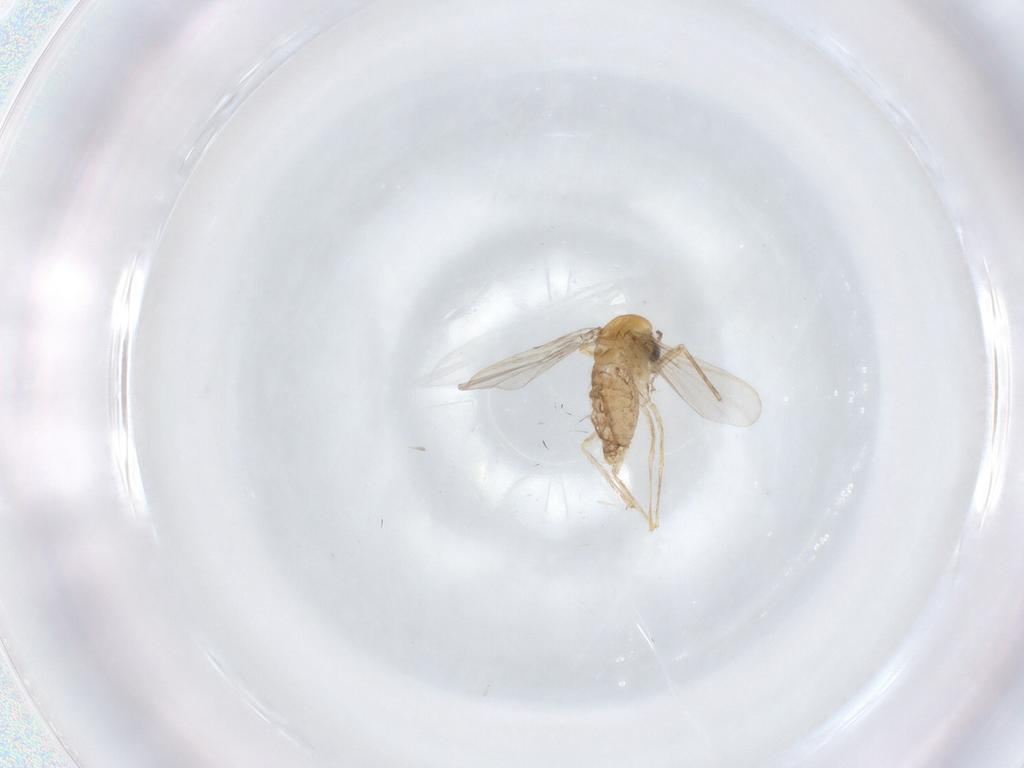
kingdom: Animalia
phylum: Arthropoda
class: Insecta
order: Diptera
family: Chironomidae
